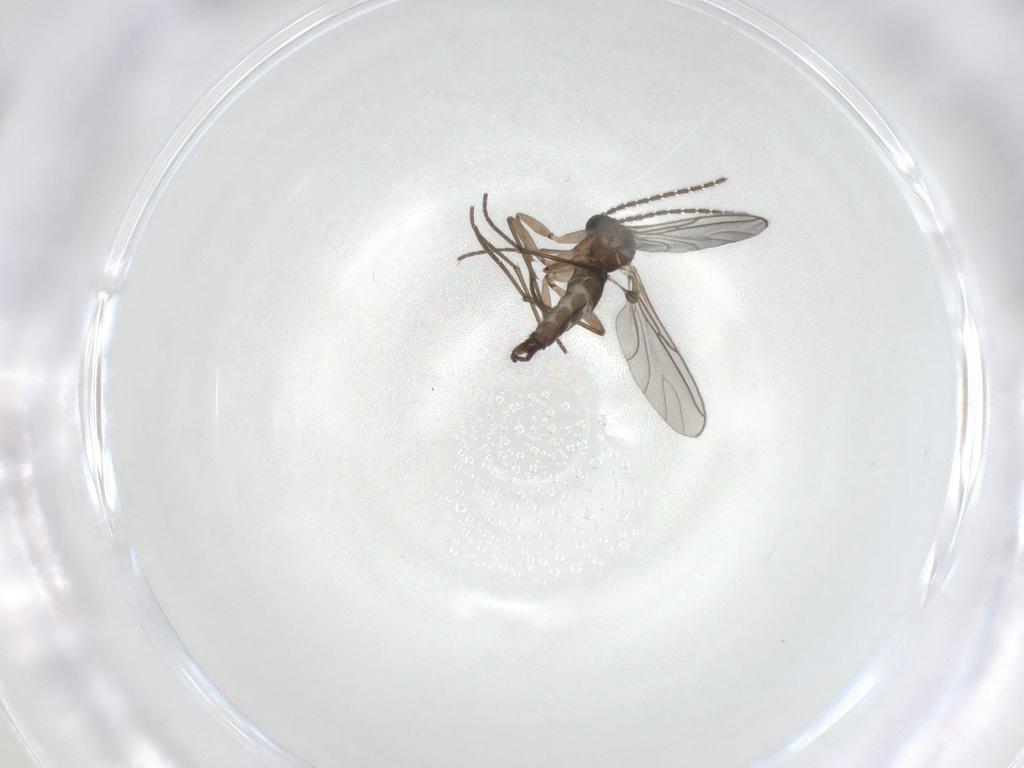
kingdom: Animalia
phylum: Arthropoda
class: Insecta
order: Diptera
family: Sciaridae
